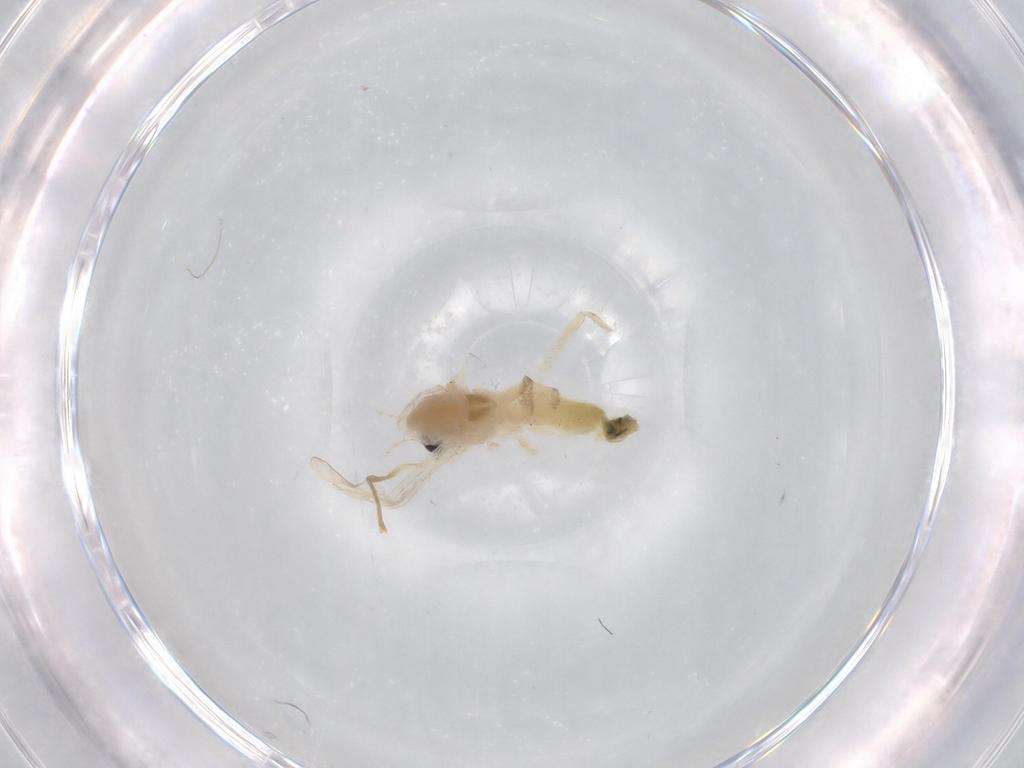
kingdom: Animalia
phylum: Arthropoda
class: Insecta
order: Diptera
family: Chironomidae
